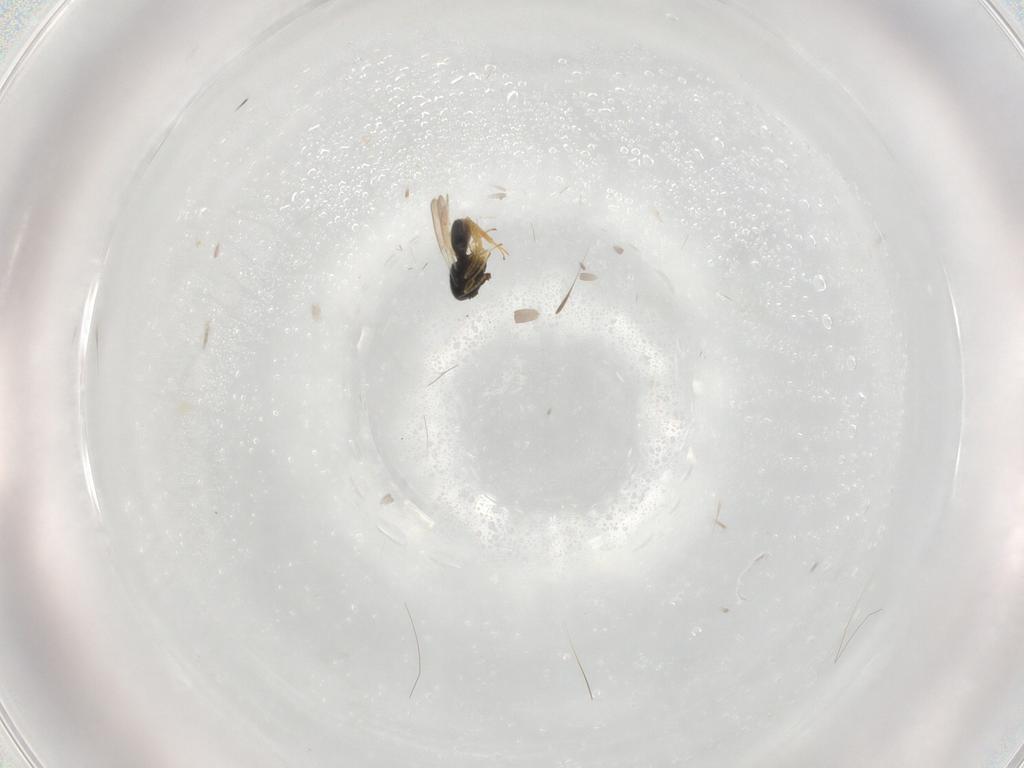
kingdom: Animalia
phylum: Arthropoda
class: Insecta
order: Hymenoptera
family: Scelionidae
